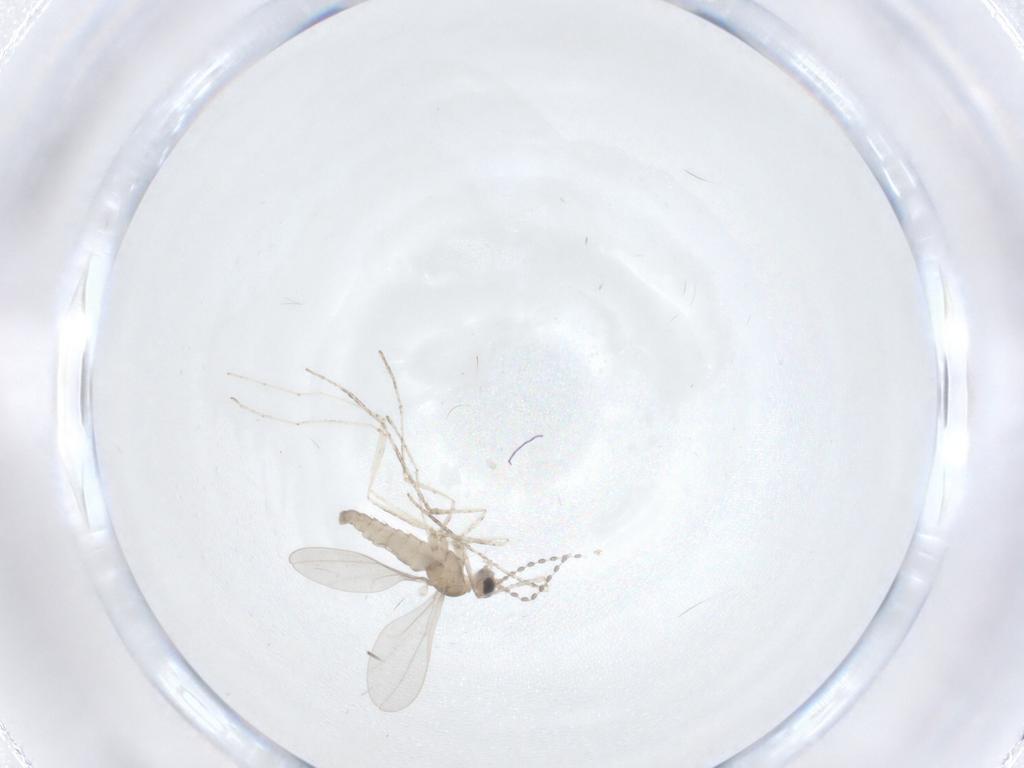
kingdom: Animalia
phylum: Arthropoda
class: Insecta
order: Diptera
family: Cecidomyiidae
